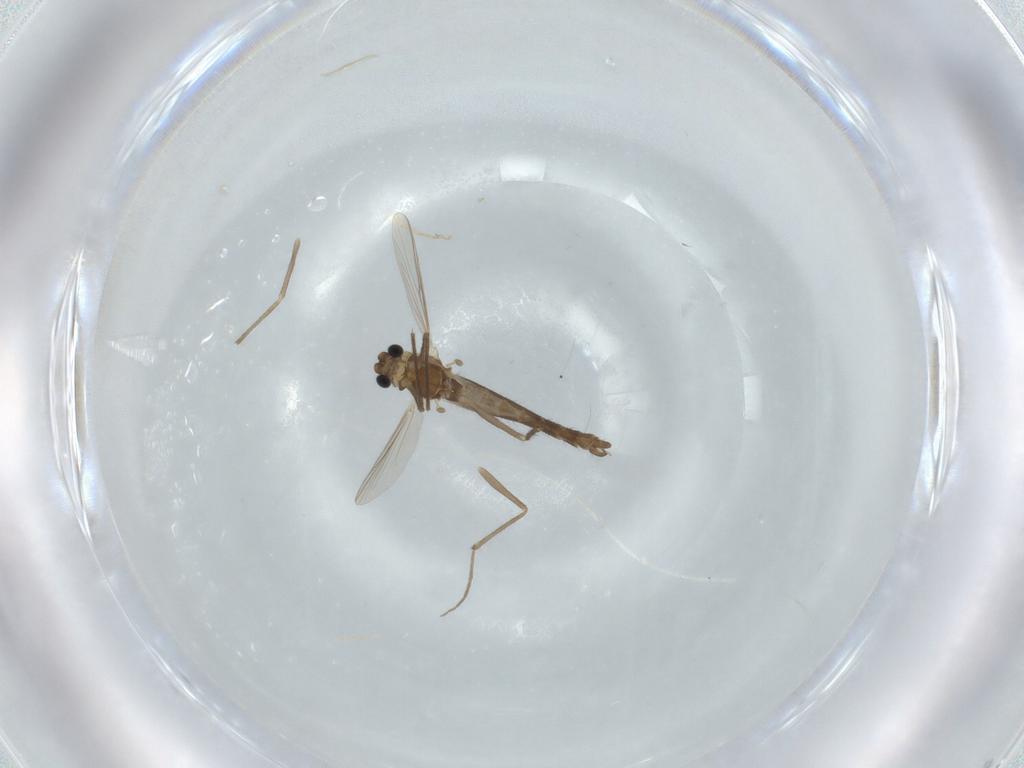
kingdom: Animalia
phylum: Arthropoda
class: Insecta
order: Diptera
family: Chironomidae
